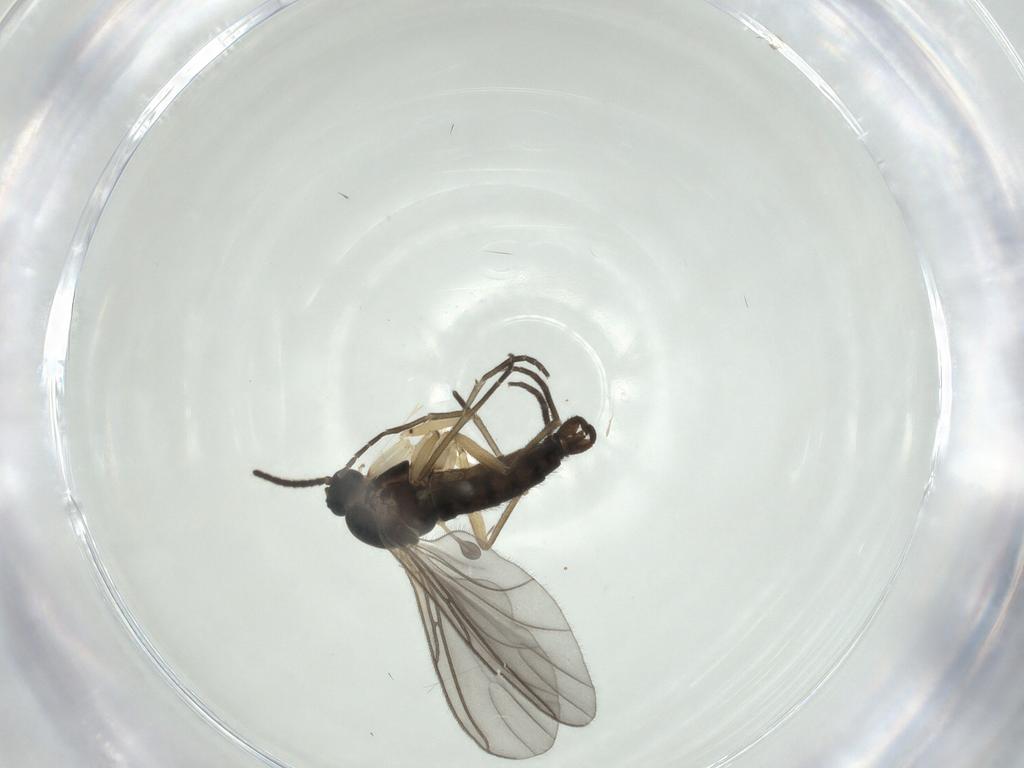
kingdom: Animalia
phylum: Arthropoda
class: Insecta
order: Diptera
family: Sciaridae
